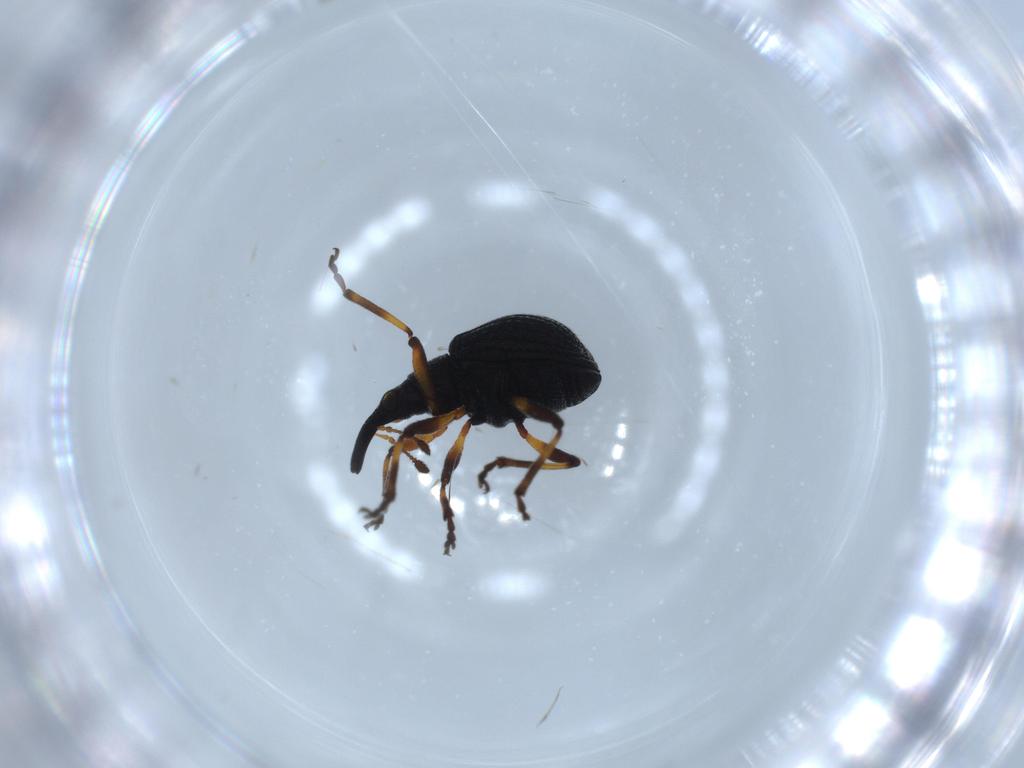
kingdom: Animalia
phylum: Arthropoda
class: Insecta
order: Coleoptera
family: Brentidae
